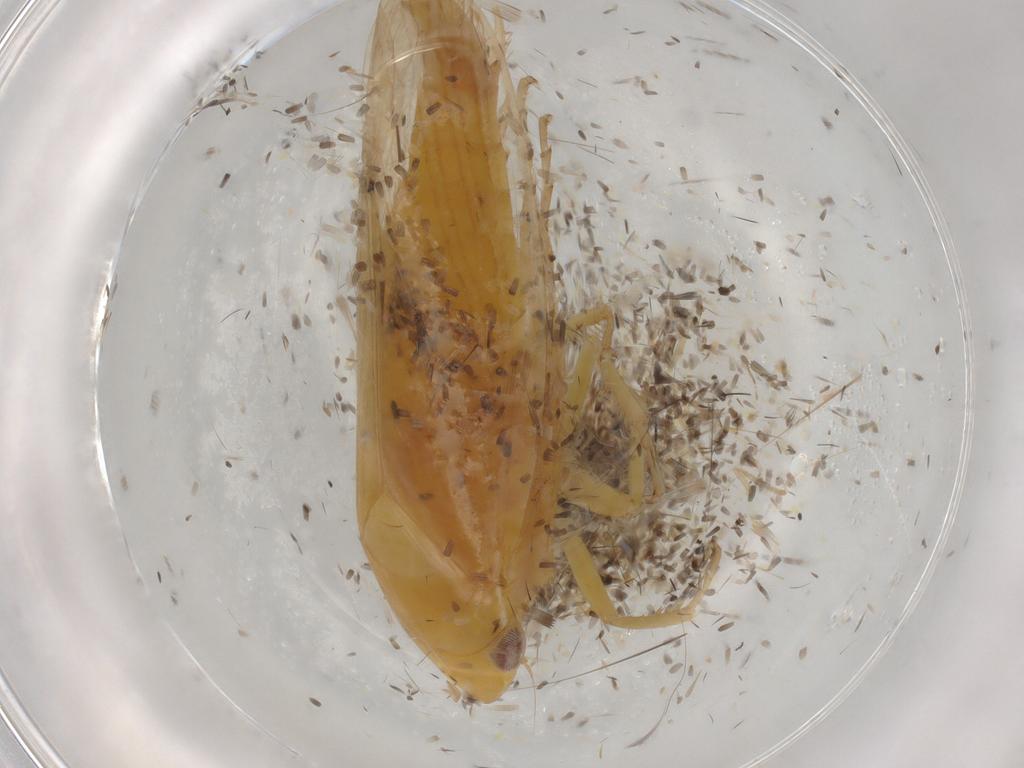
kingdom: Animalia
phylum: Arthropoda
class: Insecta
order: Hemiptera
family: Cicadellidae
